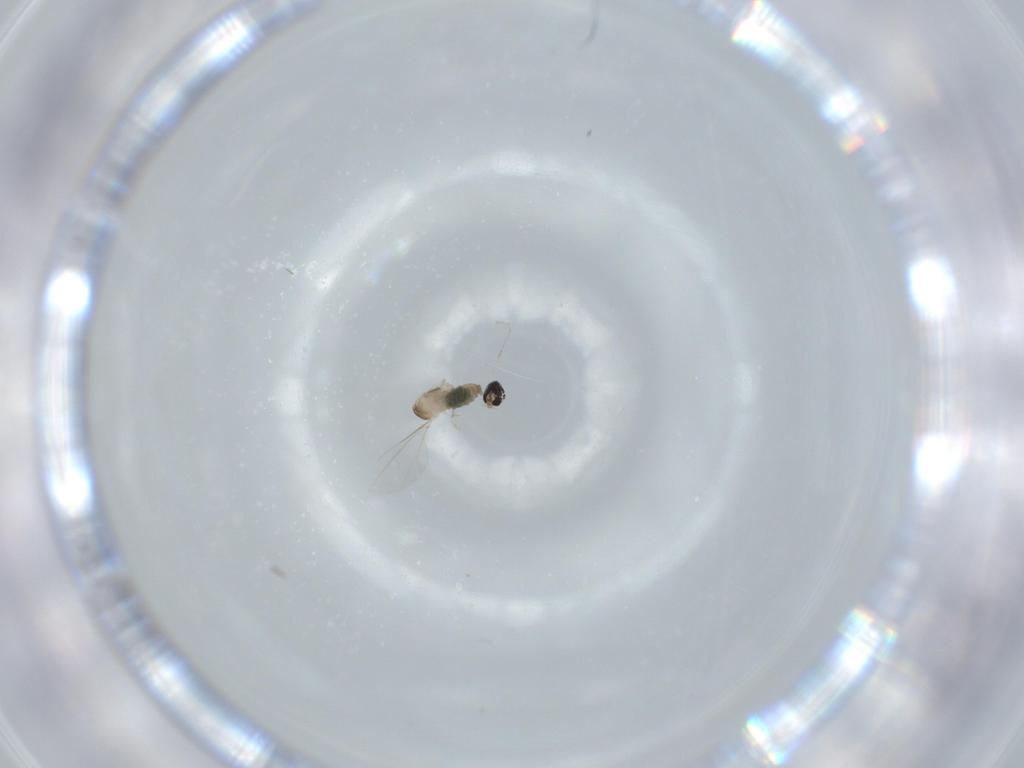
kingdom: Animalia
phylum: Arthropoda
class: Insecta
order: Diptera
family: Cecidomyiidae
